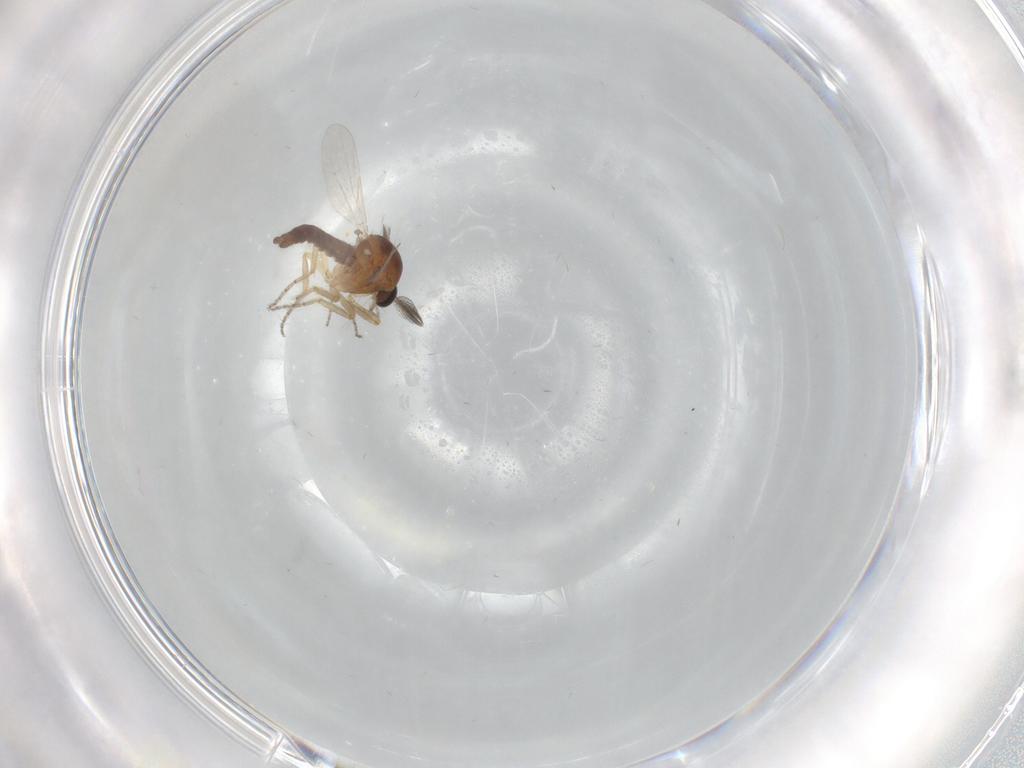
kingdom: Animalia
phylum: Arthropoda
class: Insecta
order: Diptera
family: Ceratopogonidae
